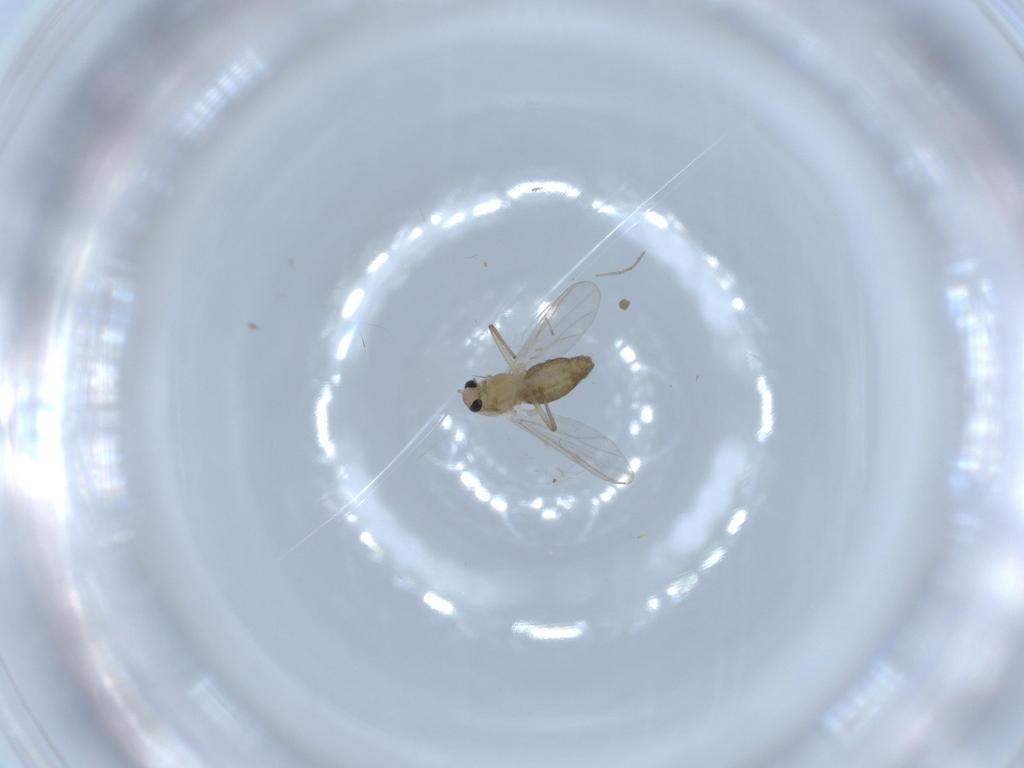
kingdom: Animalia
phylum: Arthropoda
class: Insecta
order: Diptera
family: Chironomidae
